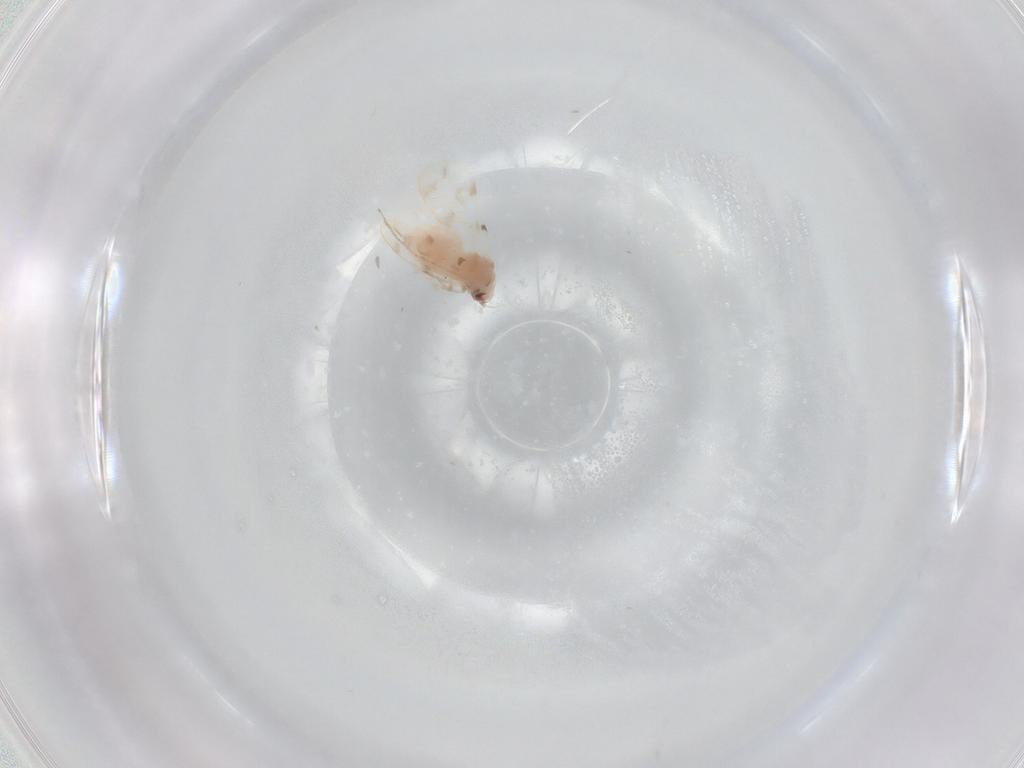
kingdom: Animalia
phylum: Arthropoda
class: Insecta
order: Hemiptera
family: Aleyrodidae
